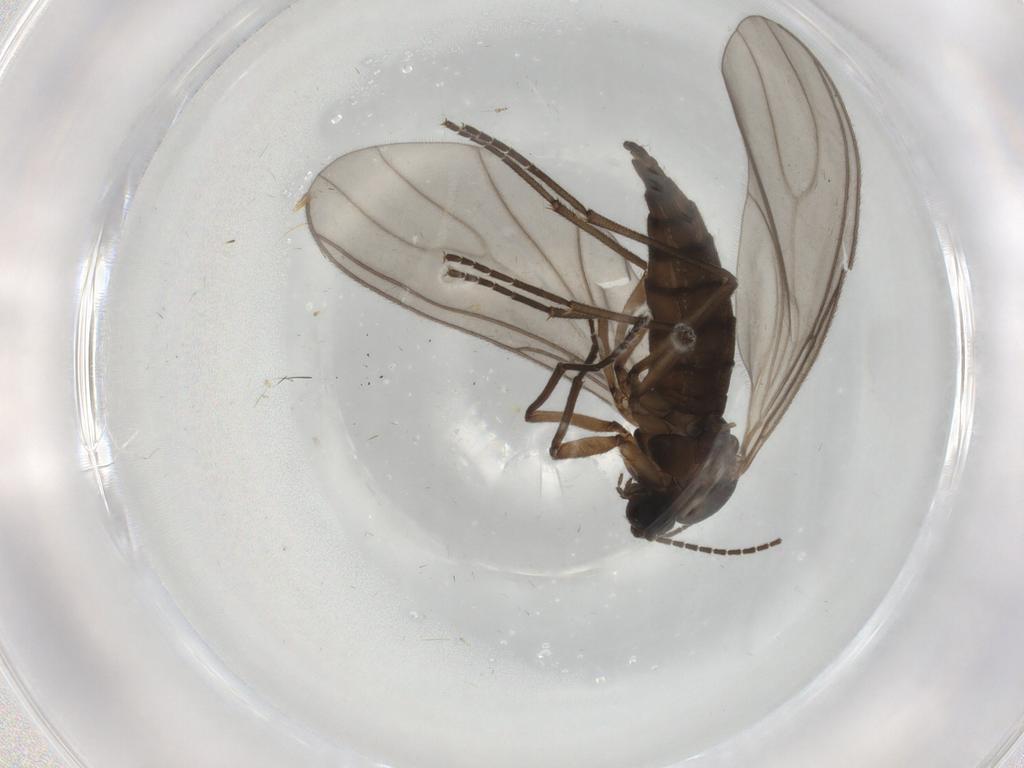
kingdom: Animalia
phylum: Arthropoda
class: Insecta
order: Diptera
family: Sciaridae
